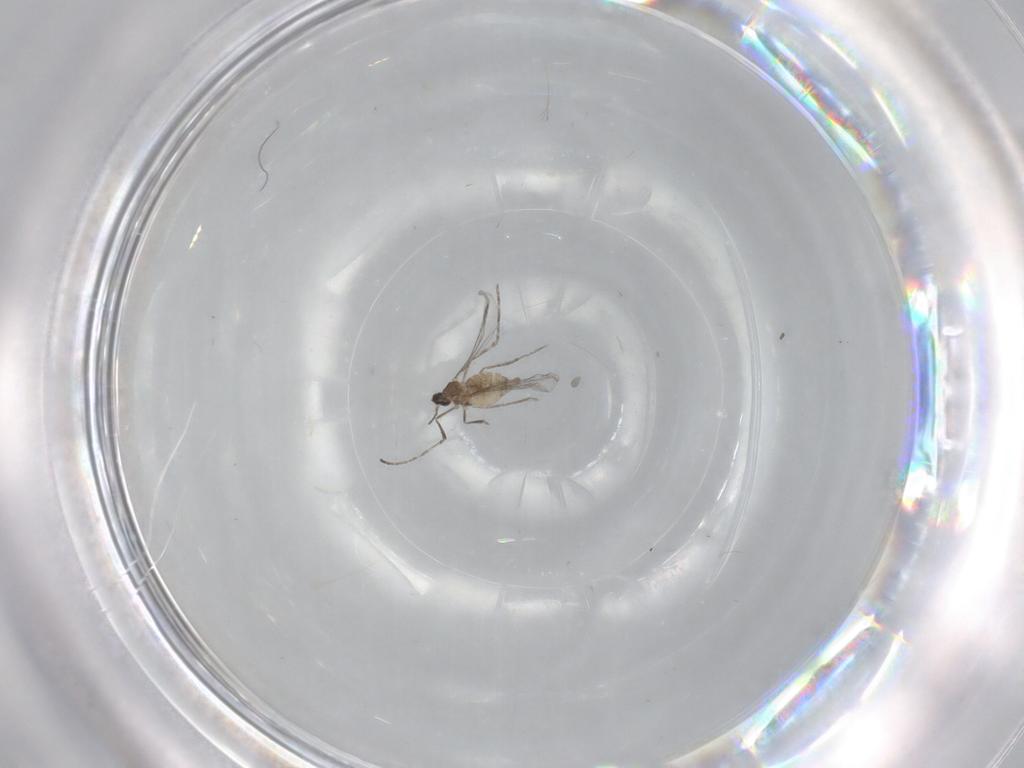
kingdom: Animalia
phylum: Arthropoda
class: Insecta
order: Diptera
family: Cecidomyiidae
